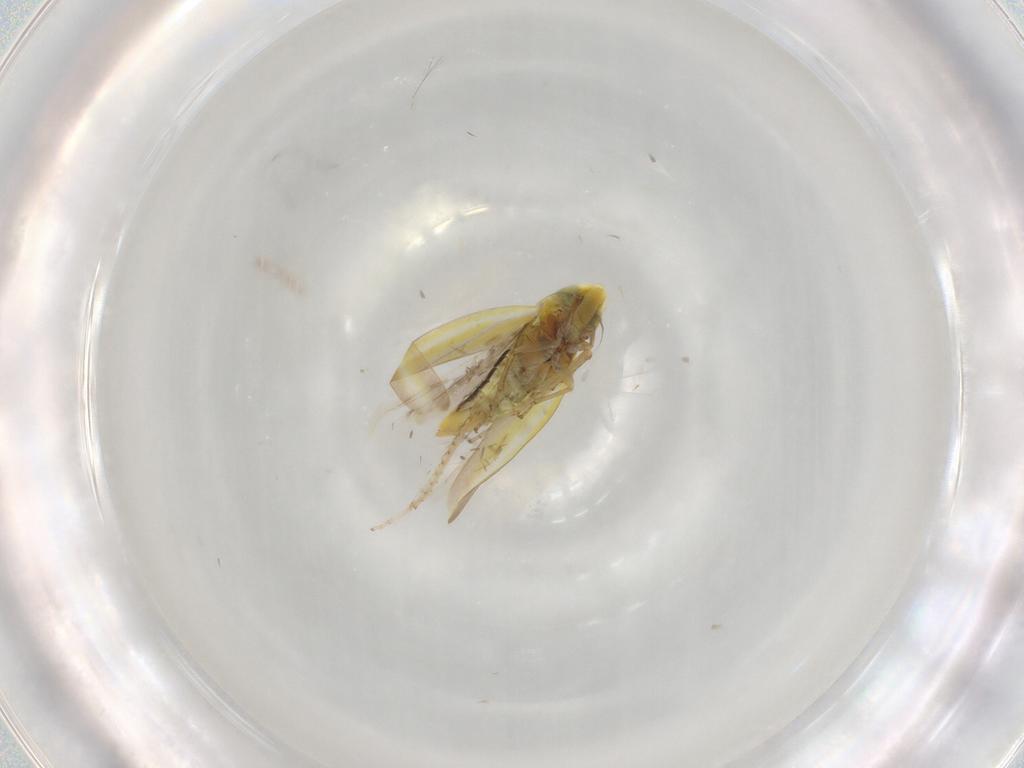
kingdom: Animalia
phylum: Arthropoda
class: Insecta
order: Hemiptera
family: Cicadellidae
